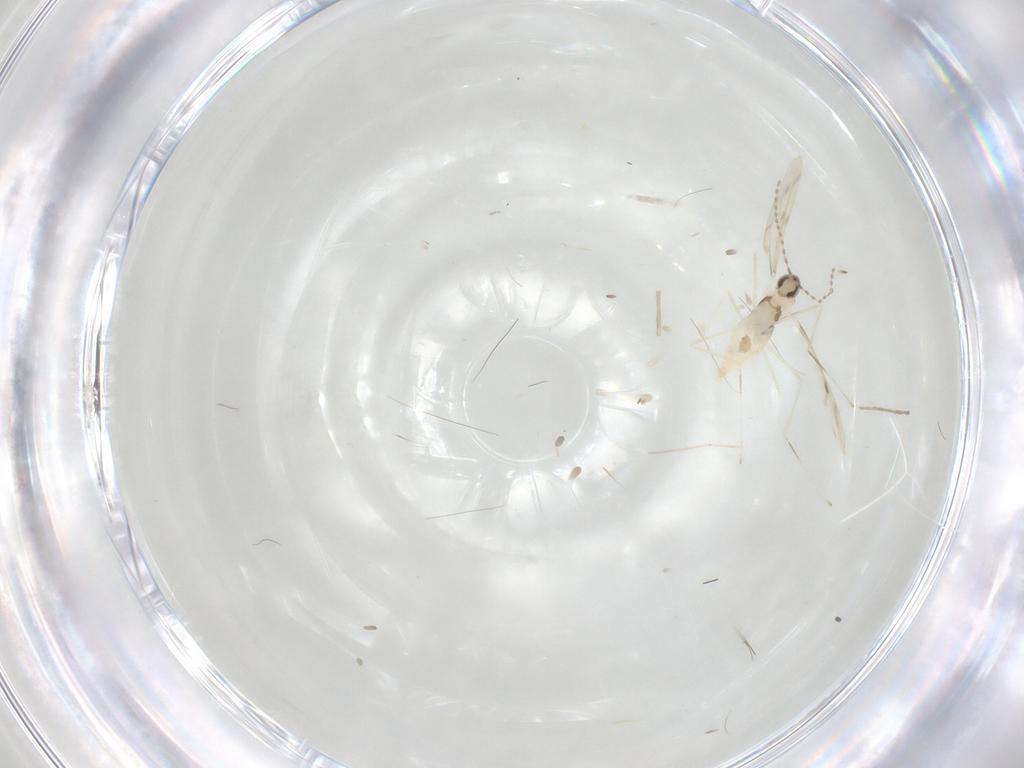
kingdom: Animalia
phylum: Arthropoda
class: Insecta
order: Diptera
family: Cecidomyiidae
